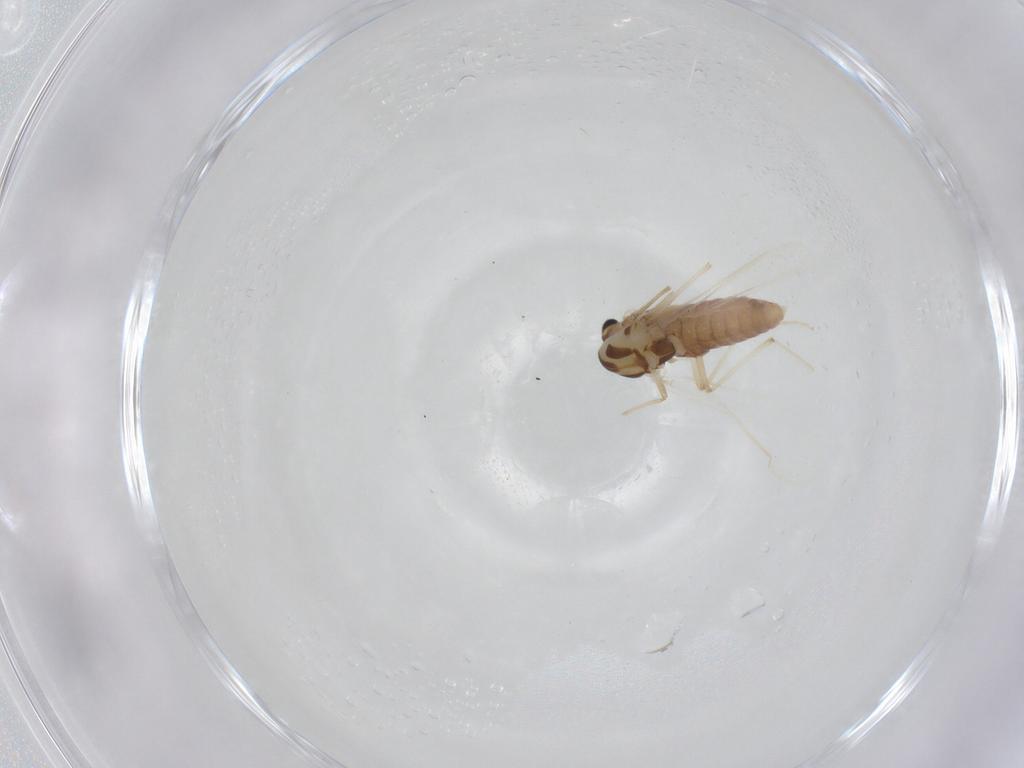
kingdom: Animalia
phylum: Arthropoda
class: Insecta
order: Diptera
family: Chironomidae
